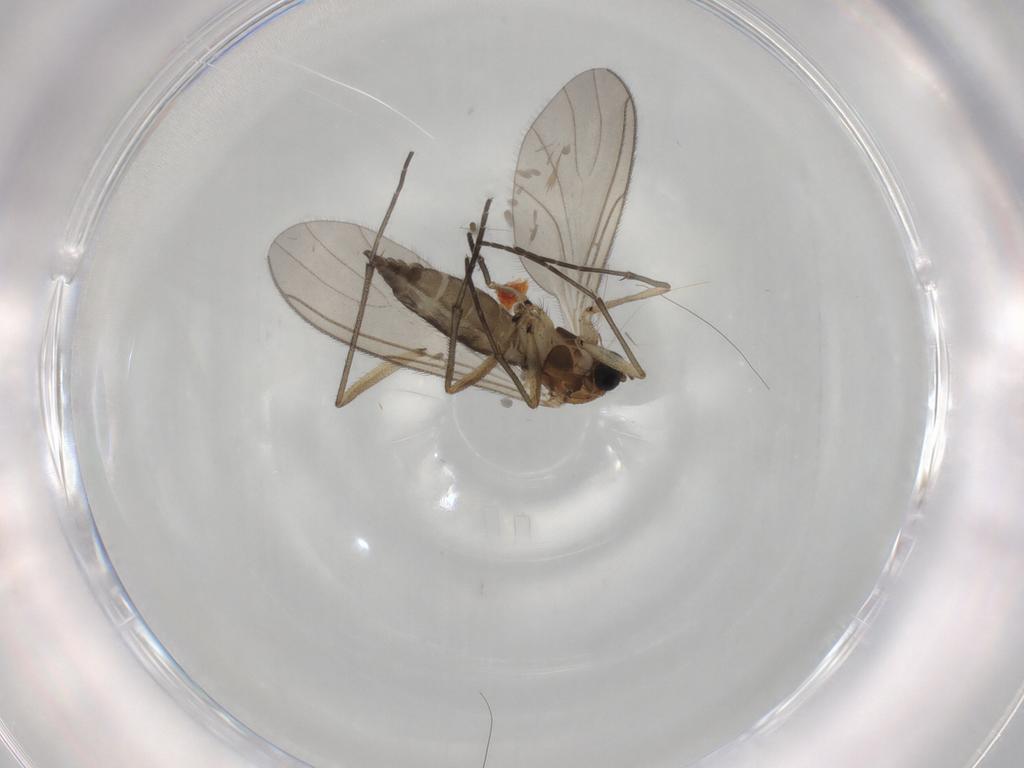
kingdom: Animalia
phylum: Arthropoda
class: Insecta
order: Diptera
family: Sciaridae
